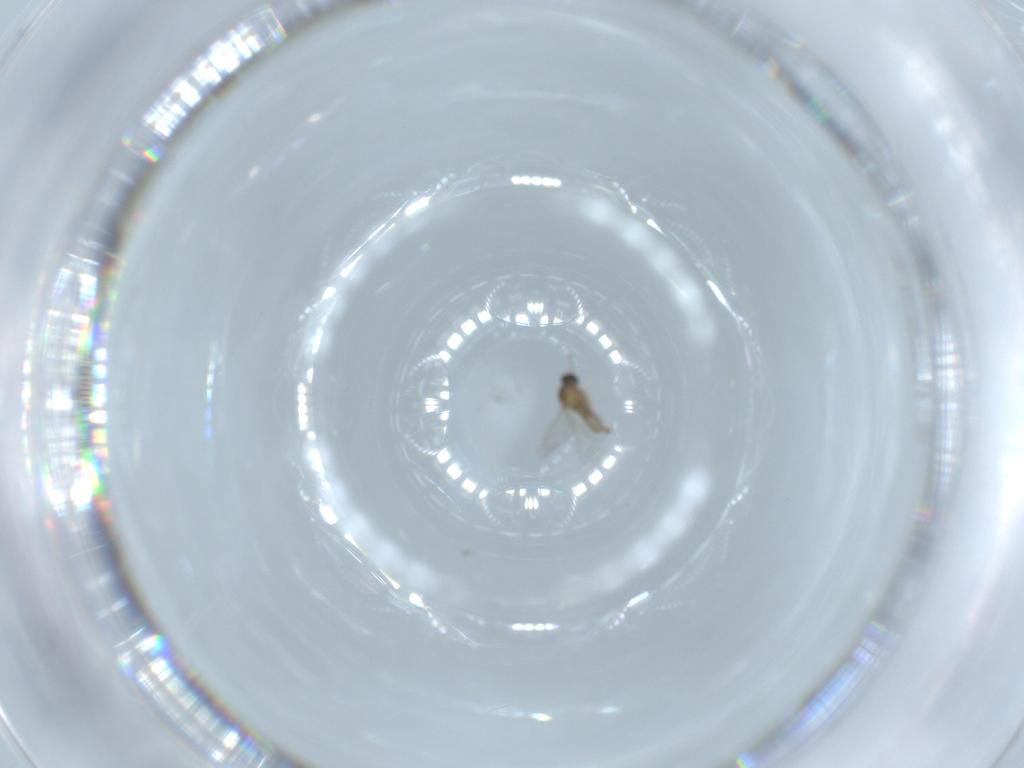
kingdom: Animalia
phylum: Arthropoda
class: Insecta
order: Diptera
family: Cecidomyiidae
